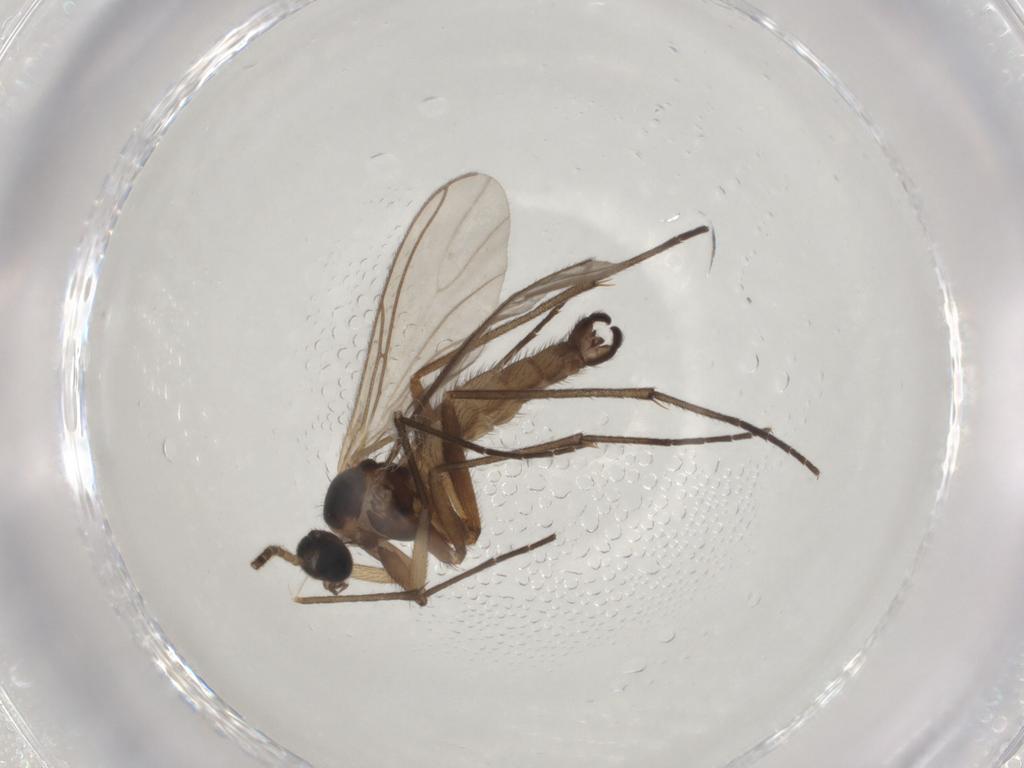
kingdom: Animalia
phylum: Arthropoda
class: Insecta
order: Diptera
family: Sciaridae
